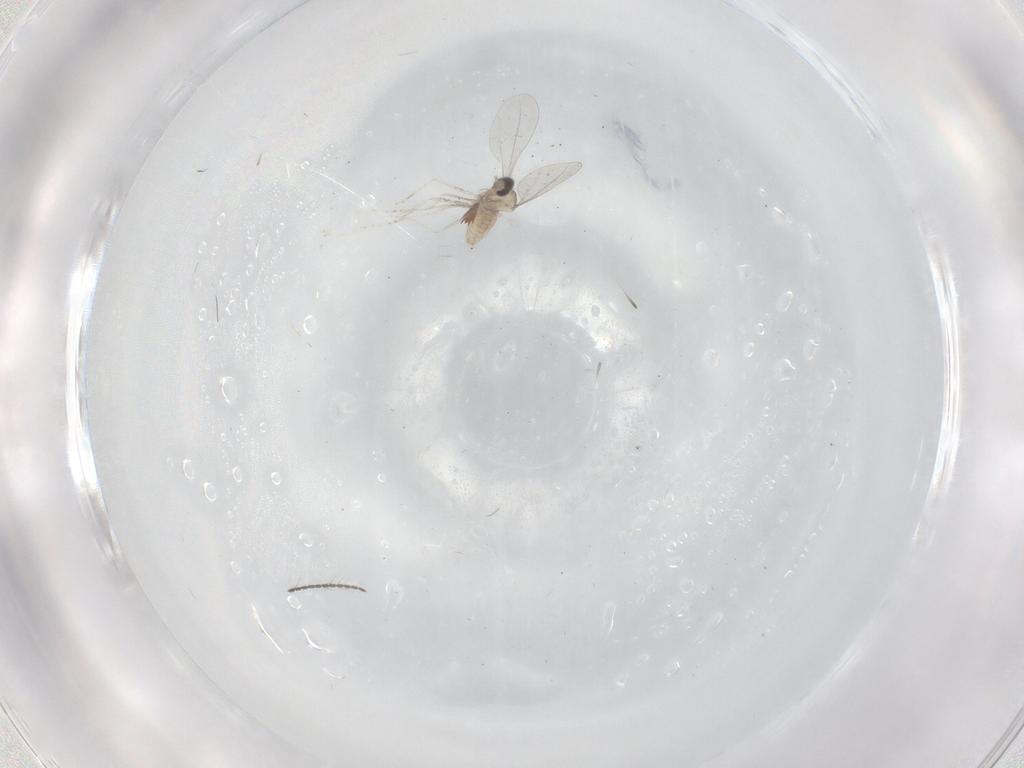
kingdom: Animalia
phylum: Arthropoda
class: Insecta
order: Diptera
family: Cecidomyiidae
